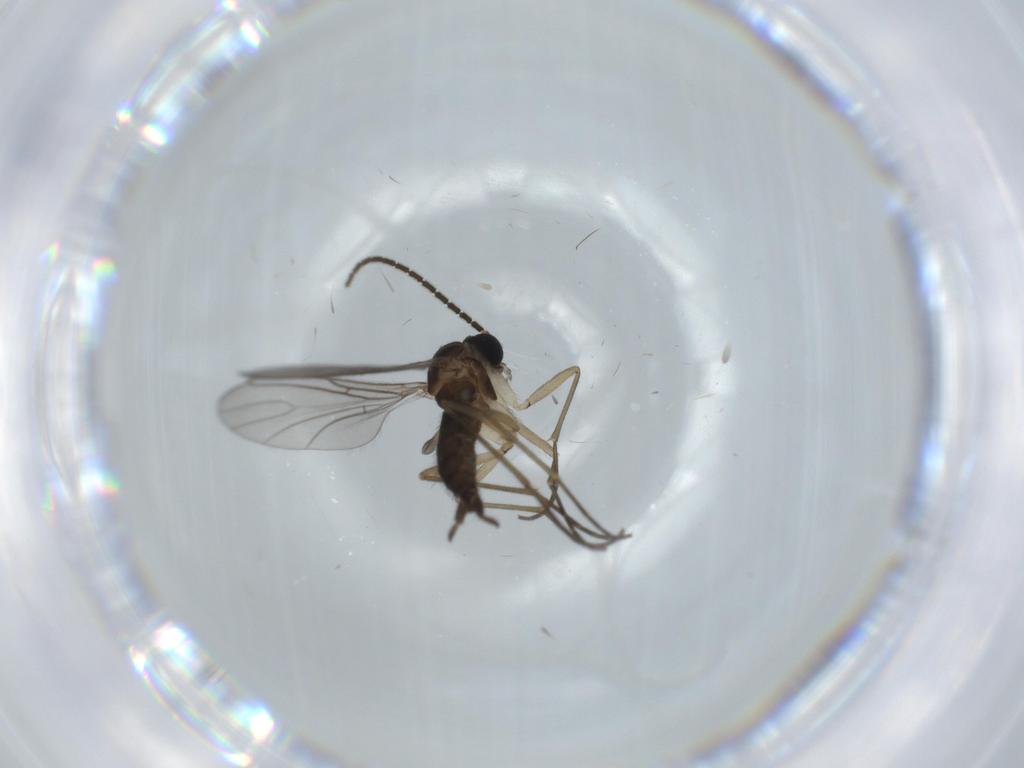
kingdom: Animalia
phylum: Arthropoda
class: Insecta
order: Diptera
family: Sciaridae
